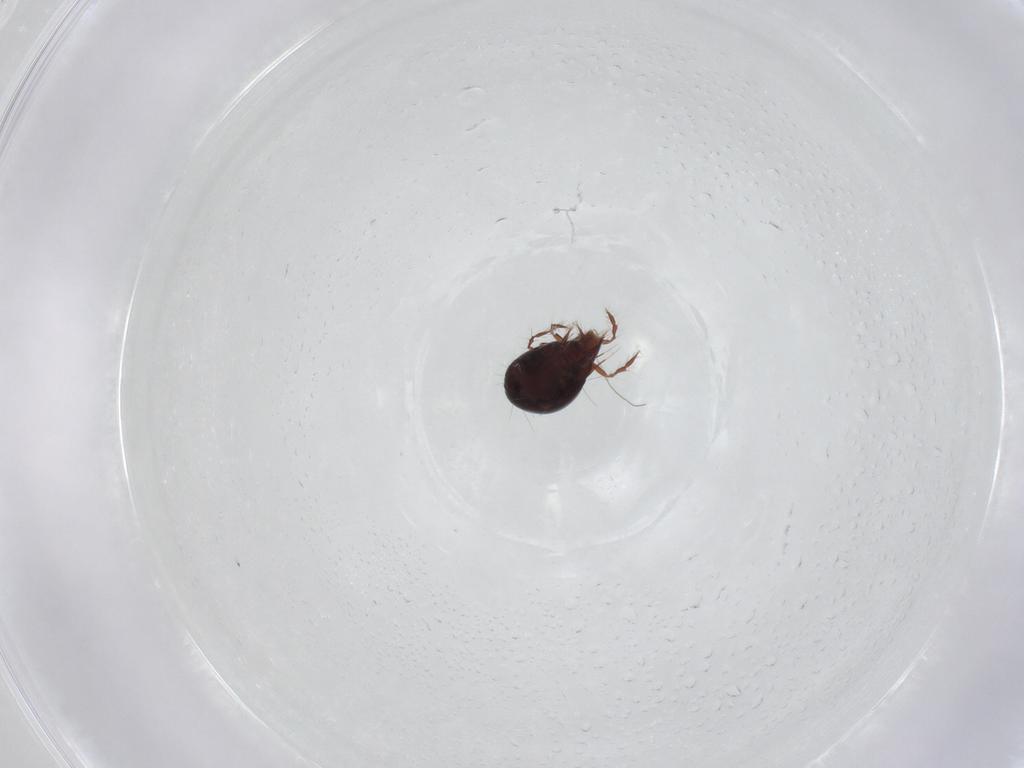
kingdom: Animalia
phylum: Arthropoda
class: Arachnida
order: Sarcoptiformes
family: Ceratoppiidae
